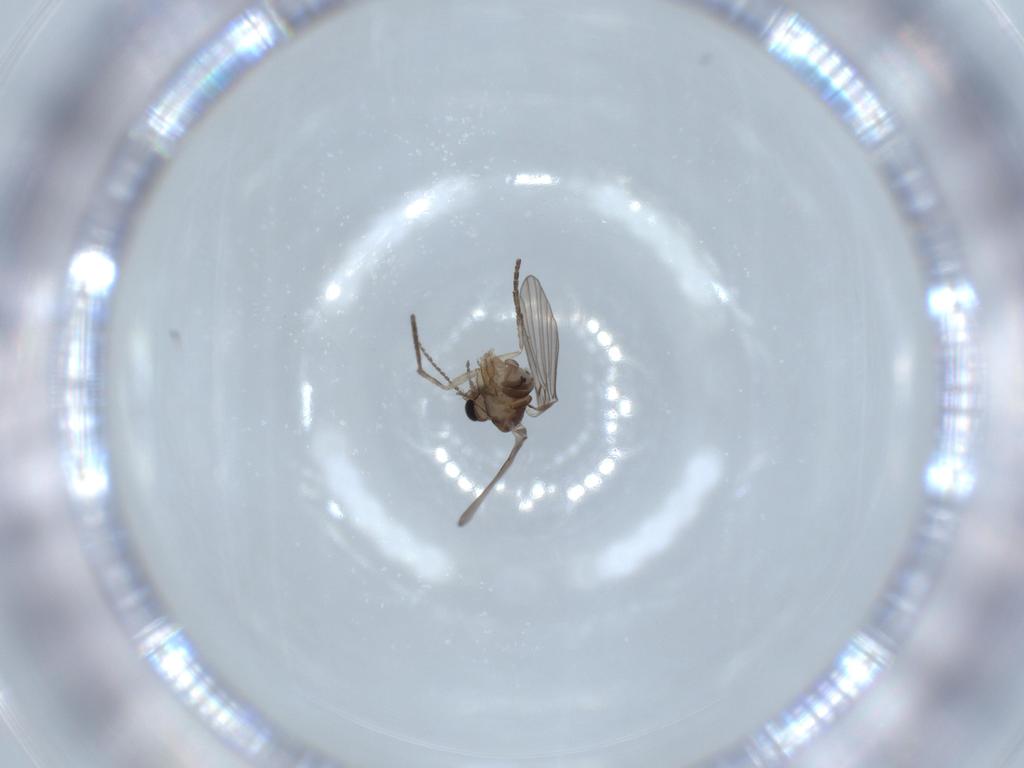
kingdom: Animalia
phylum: Arthropoda
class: Insecta
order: Diptera
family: Psychodidae
